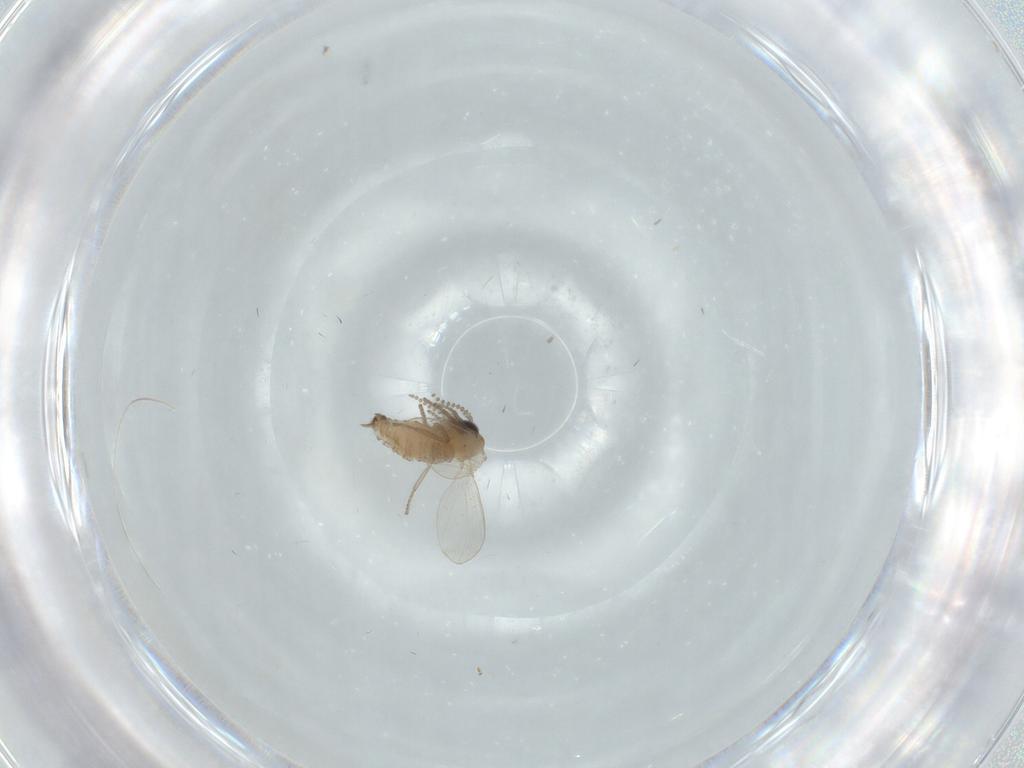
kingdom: Animalia
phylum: Arthropoda
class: Insecta
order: Diptera
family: Psychodidae
